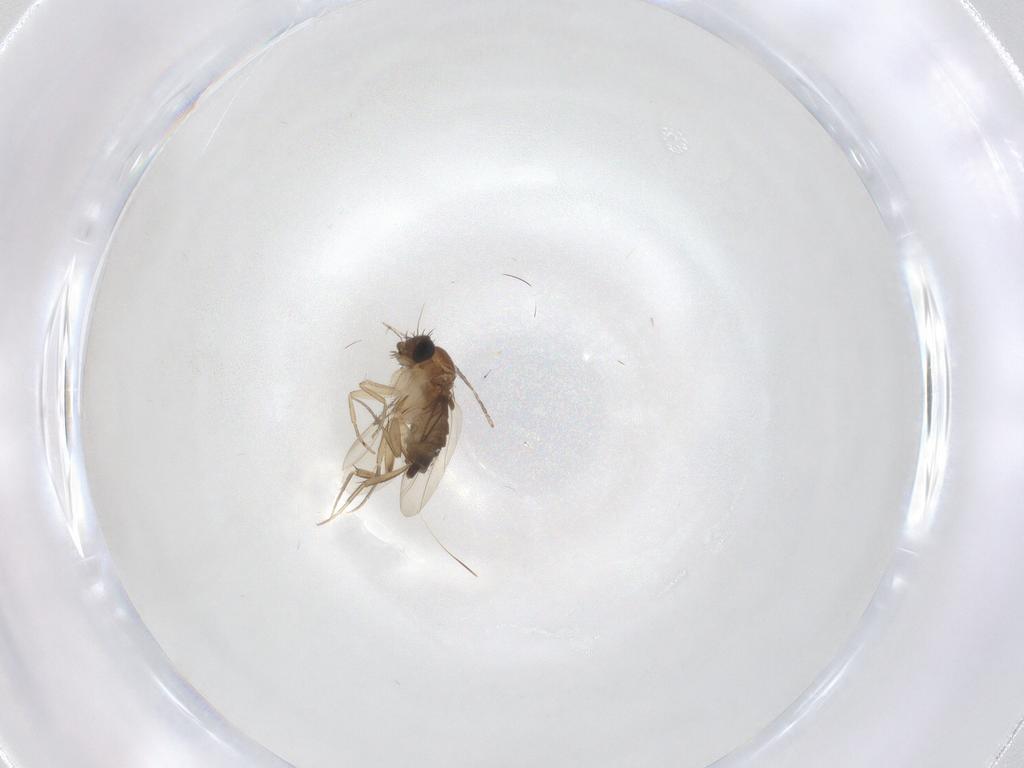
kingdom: Animalia
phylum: Arthropoda
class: Insecta
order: Diptera
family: Phoridae
